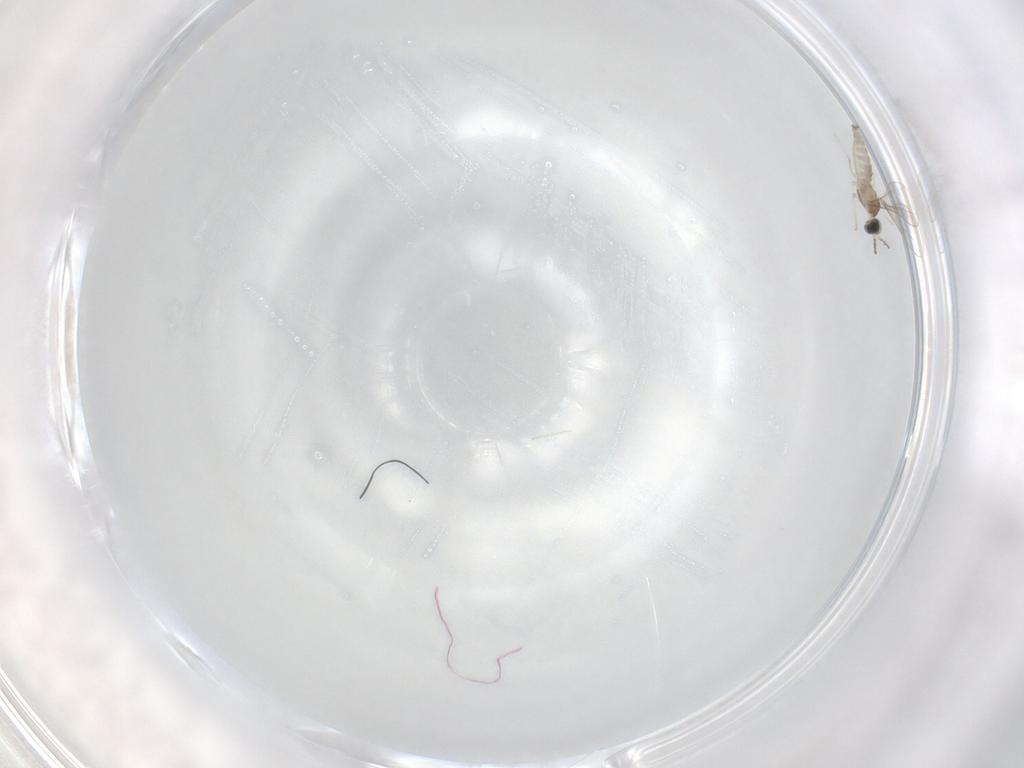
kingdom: Animalia
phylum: Arthropoda
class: Insecta
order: Diptera
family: Cecidomyiidae
